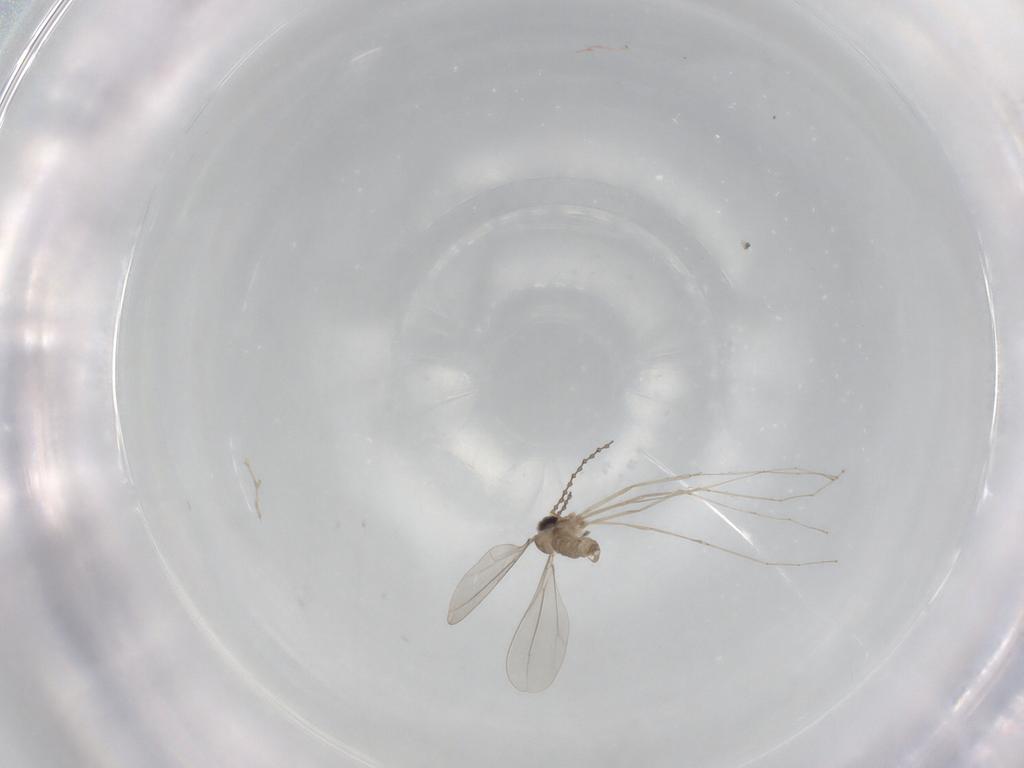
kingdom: Animalia
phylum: Arthropoda
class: Insecta
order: Diptera
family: Cecidomyiidae
